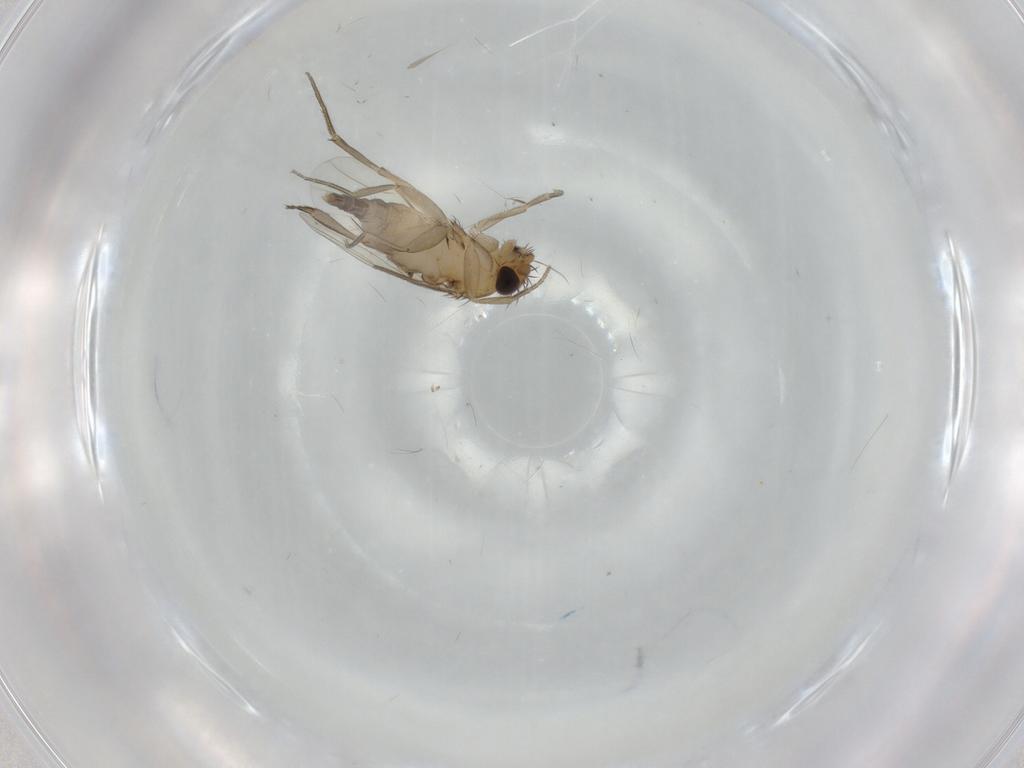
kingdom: Animalia
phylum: Arthropoda
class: Insecta
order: Diptera
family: Phoridae
